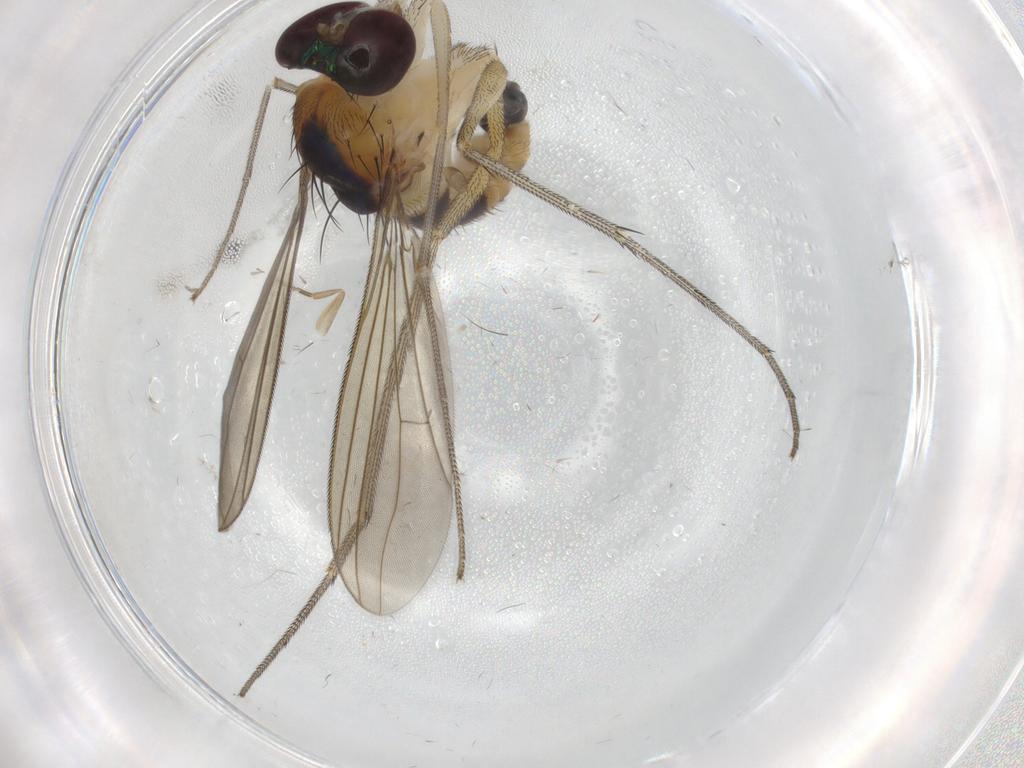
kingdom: Animalia
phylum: Arthropoda
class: Insecta
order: Diptera
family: Phoridae
